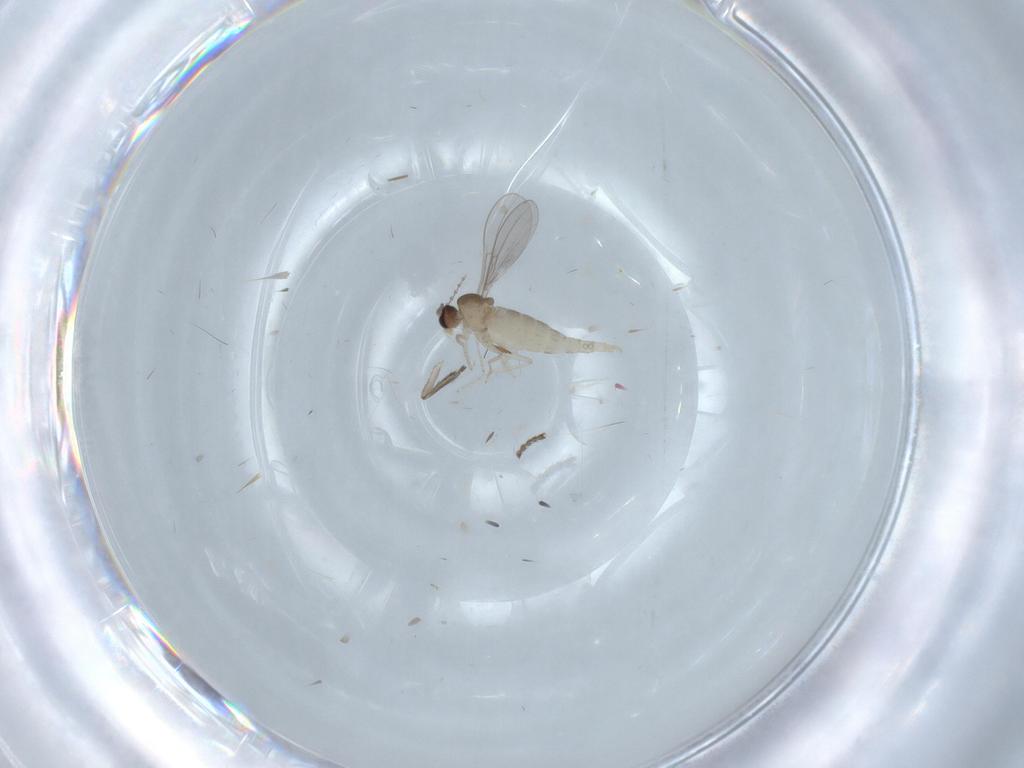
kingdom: Animalia
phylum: Arthropoda
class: Insecta
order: Diptera
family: Cecidomyiidae
